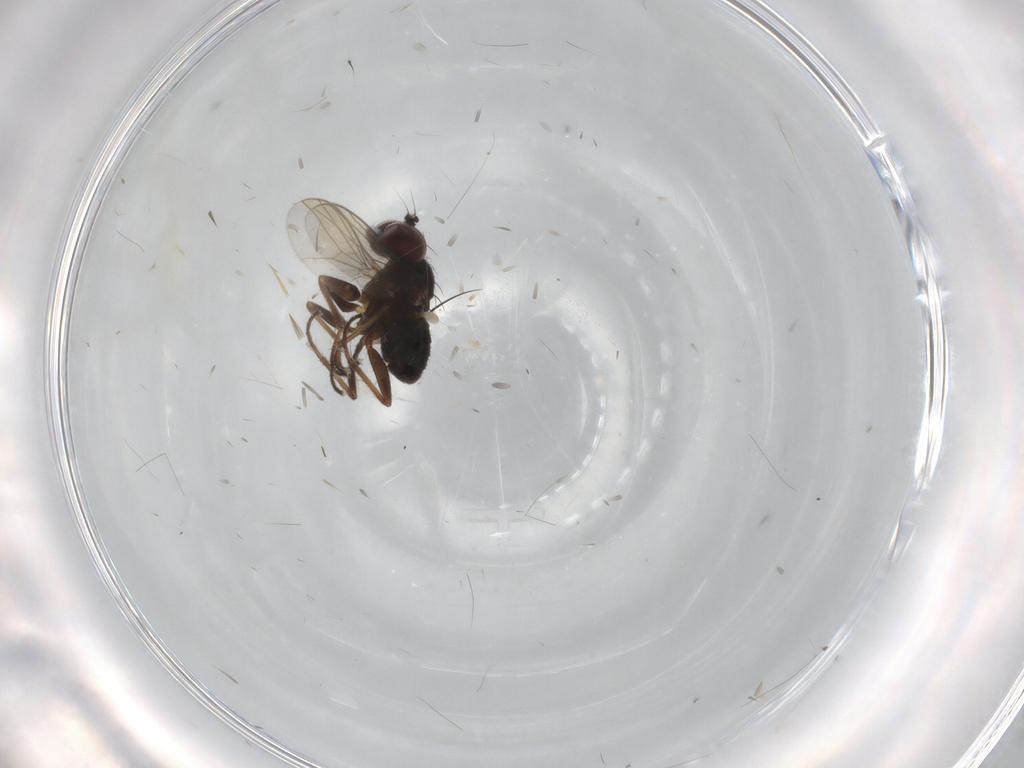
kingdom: Animalia
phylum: Arthropoda
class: Insecta
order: Diptera
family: Dolichopodidae
